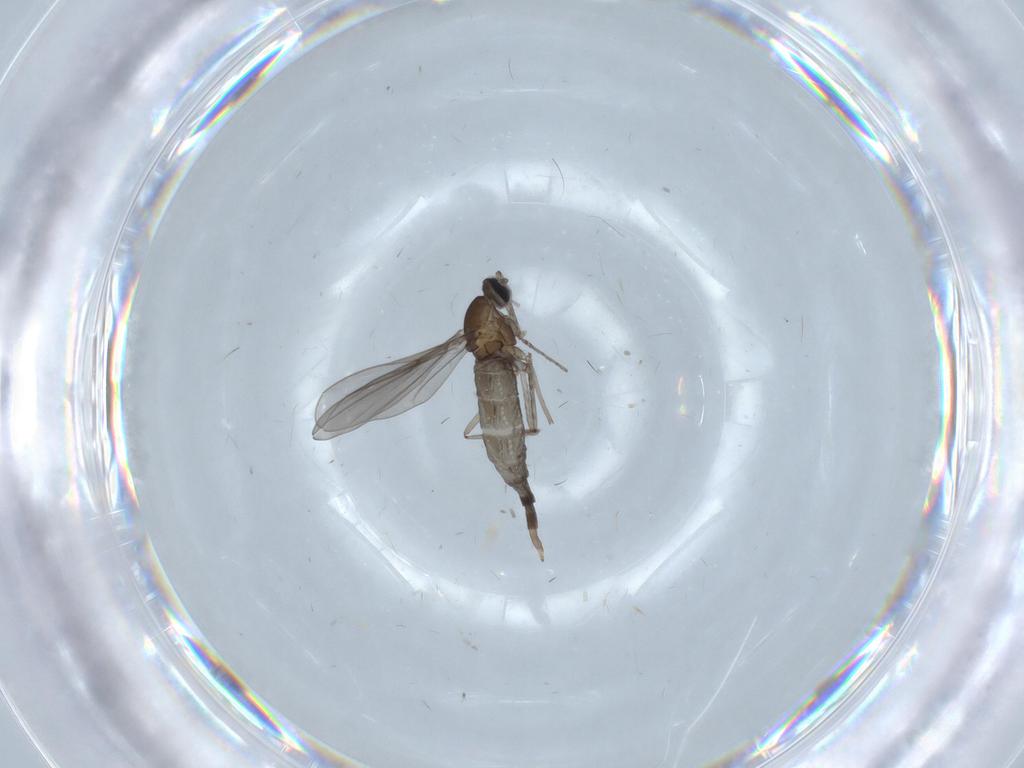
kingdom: Animalia
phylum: Arthropoda
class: Insecta
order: Diptera
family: Cecidomyiidae
